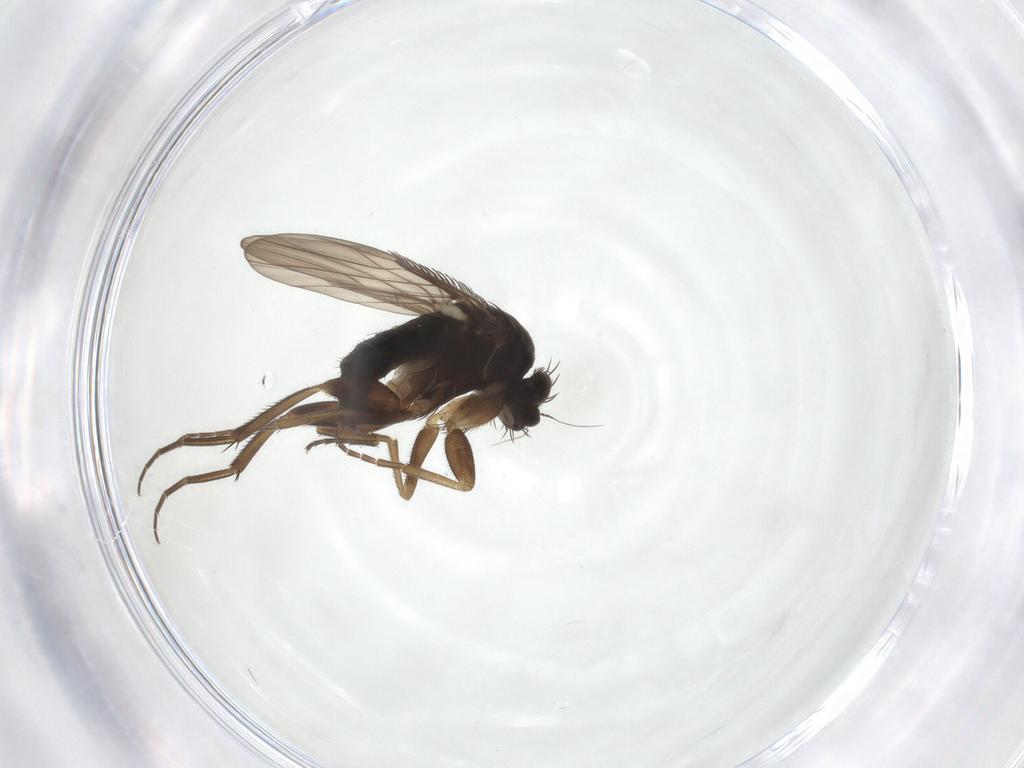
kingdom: Animalia
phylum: Arthropoda
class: Insecta
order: Diptera
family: Phoridae
